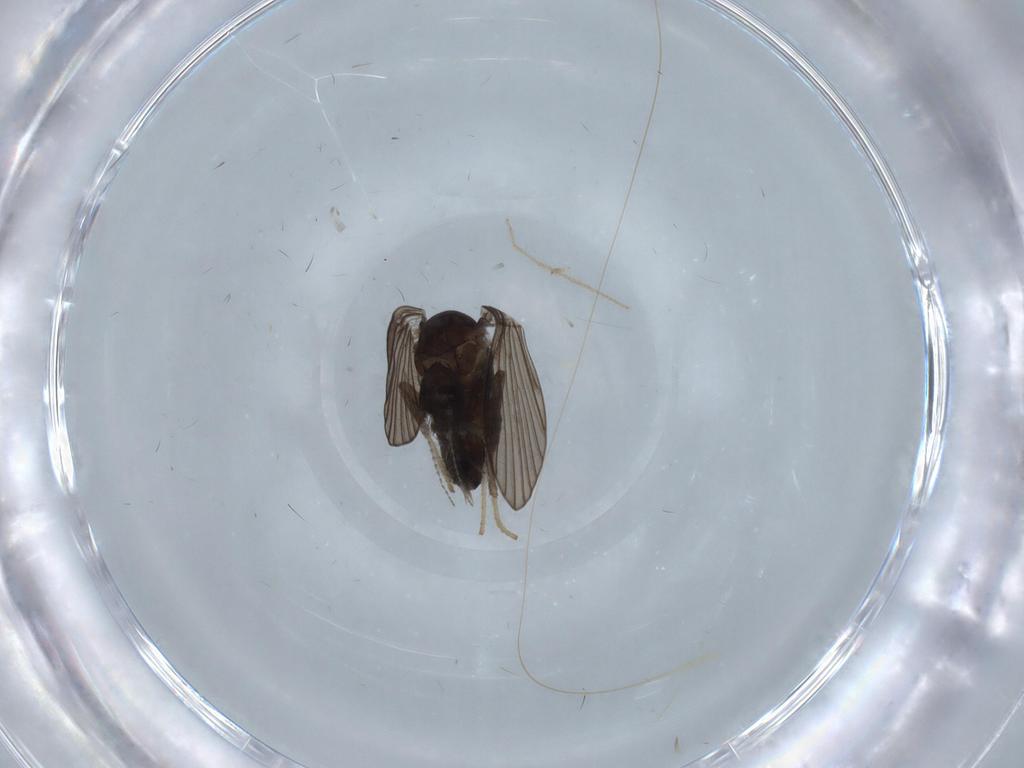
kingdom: Animalia
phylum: Arthropoda
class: Insecta
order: Diptera
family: Psychodidae
